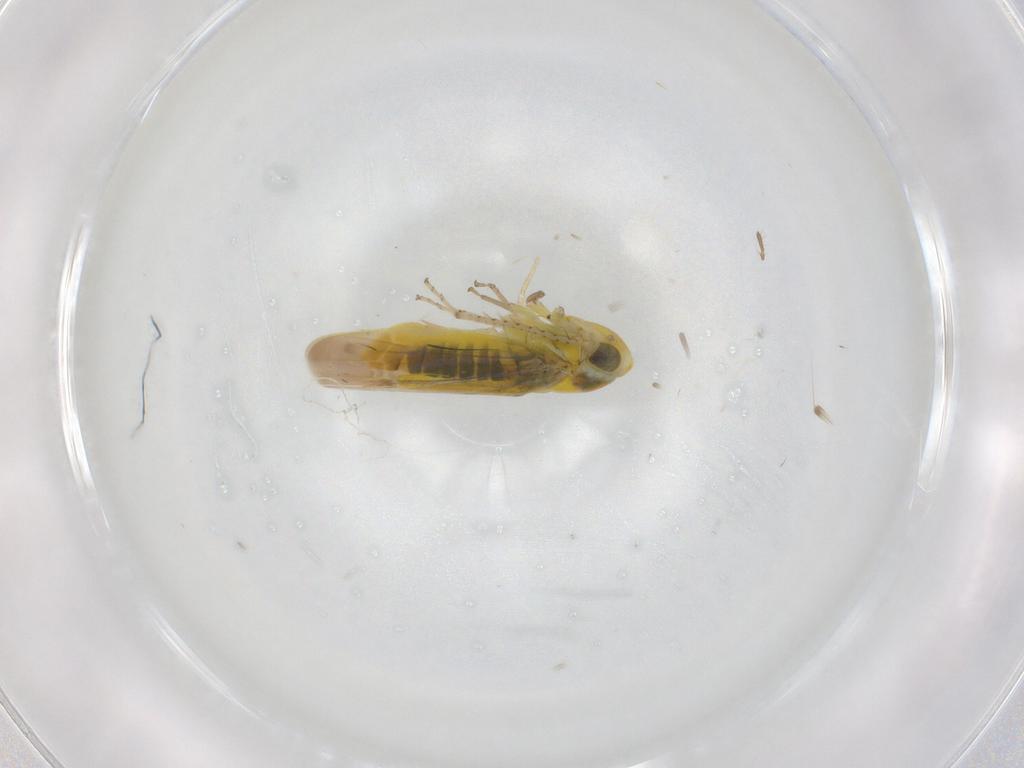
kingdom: Animalia
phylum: Arthropoda
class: Insecta
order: Hemiptera
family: Cicadellidae
